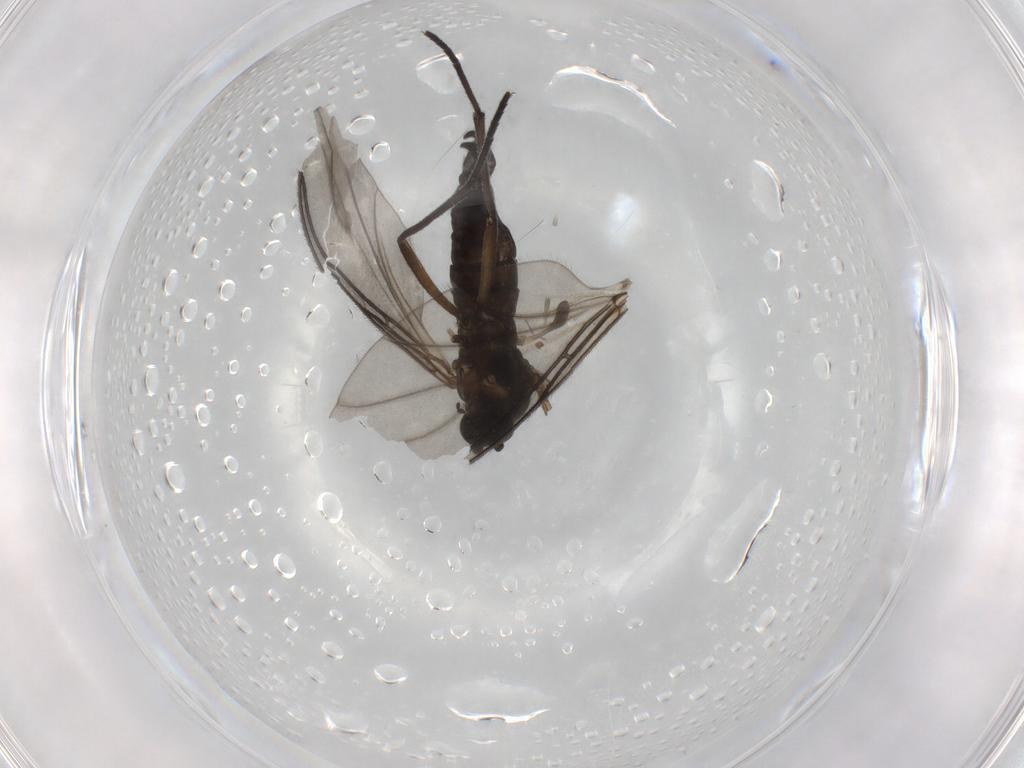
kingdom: Animalia
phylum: Arthropoda
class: Insecta
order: Diptera
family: Sciaridae
